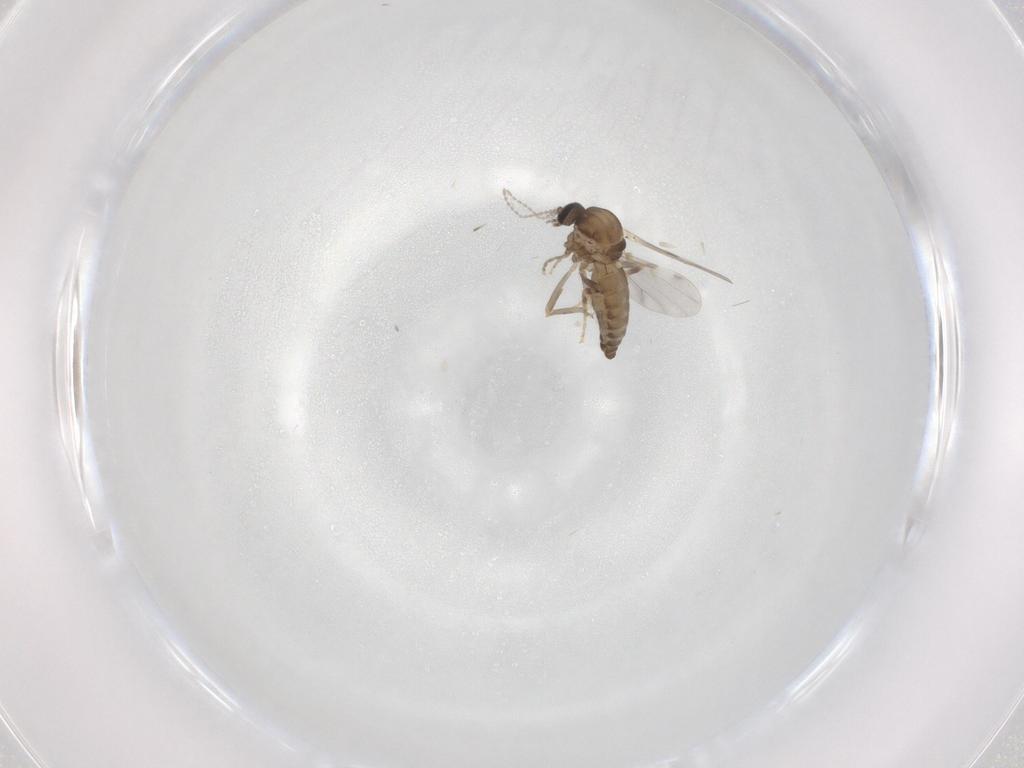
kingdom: Animalia
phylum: Arthropoda
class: Insecta
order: Diptera
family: Ceratopogonidae
